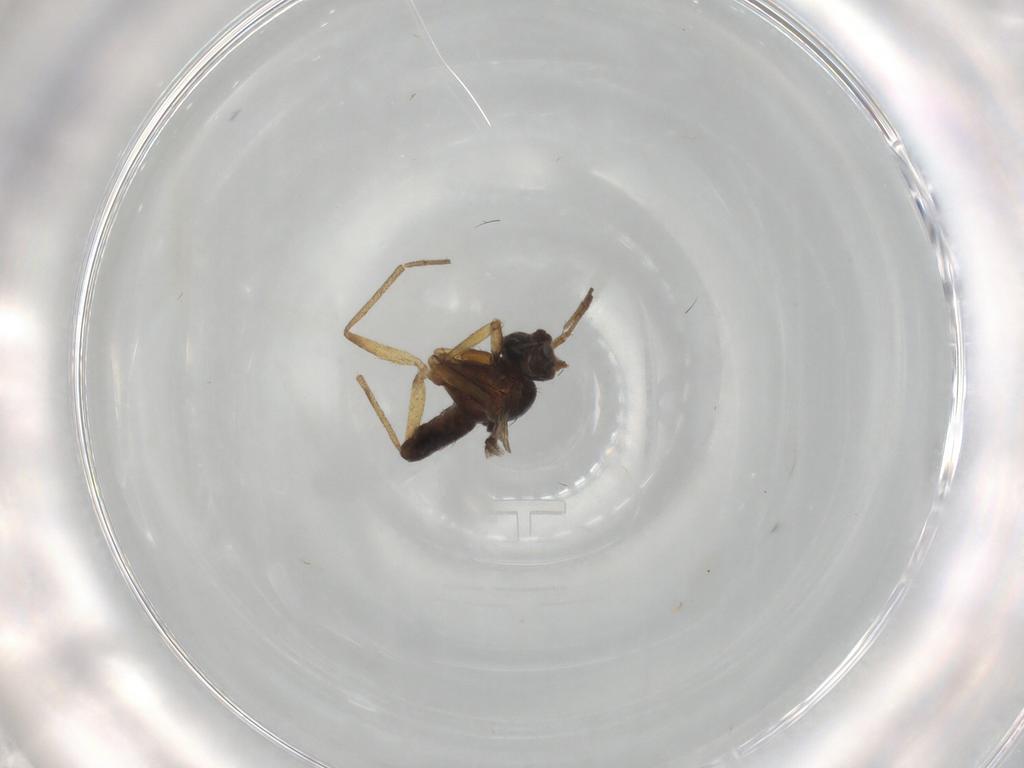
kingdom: Animalia
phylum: Arthropoda
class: Insecta
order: Diptera
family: Dolichopodidae
